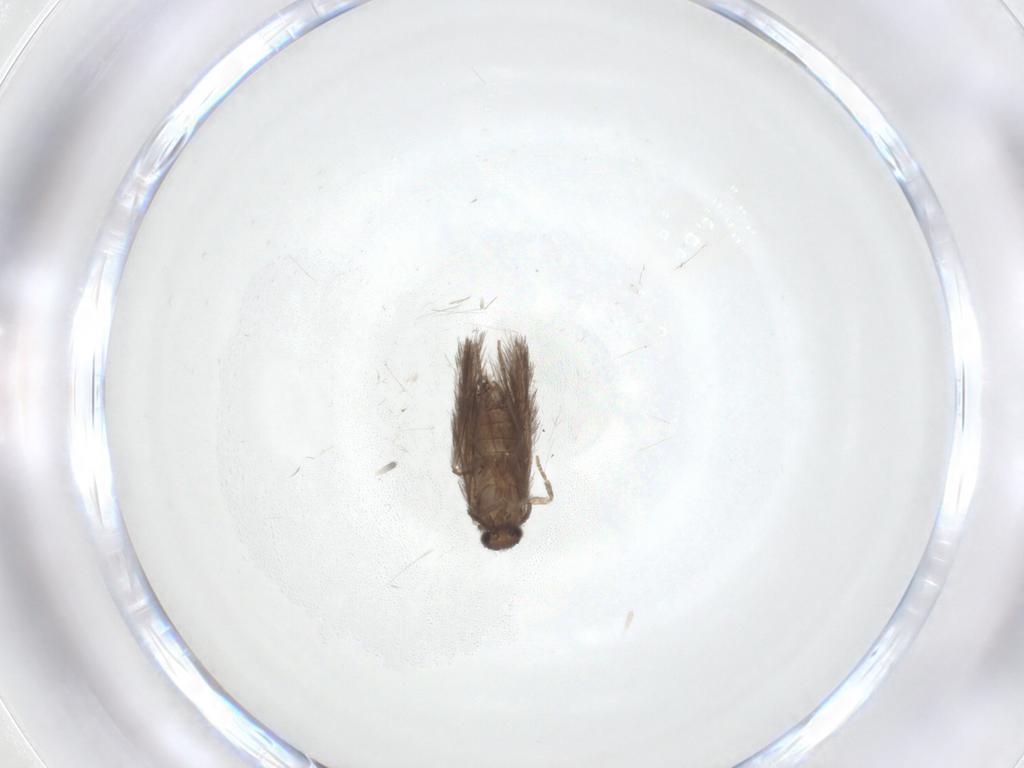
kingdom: Animalia
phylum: Arthropoda
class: Insecta
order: Trichoptera
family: Hydroptilidae
